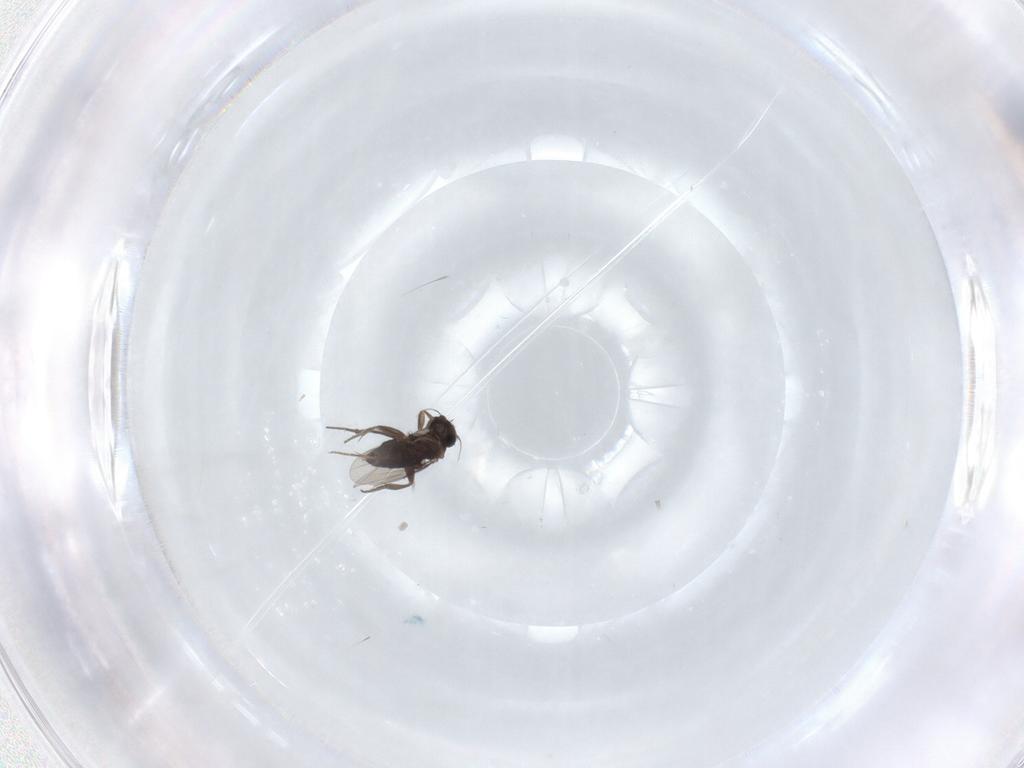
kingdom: Animalia
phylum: Arthropoda
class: Insecta
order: Diptera
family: Phoridae
